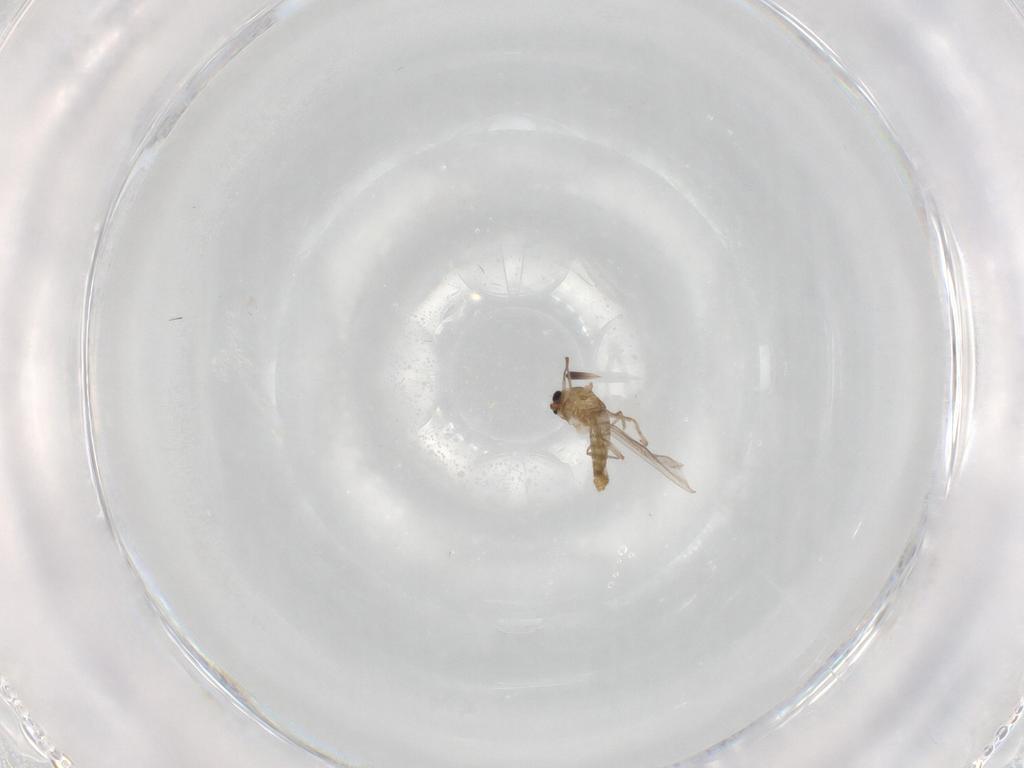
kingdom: Animalia
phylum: Arthropoda
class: Insecta
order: Diptera
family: Chironomidae
